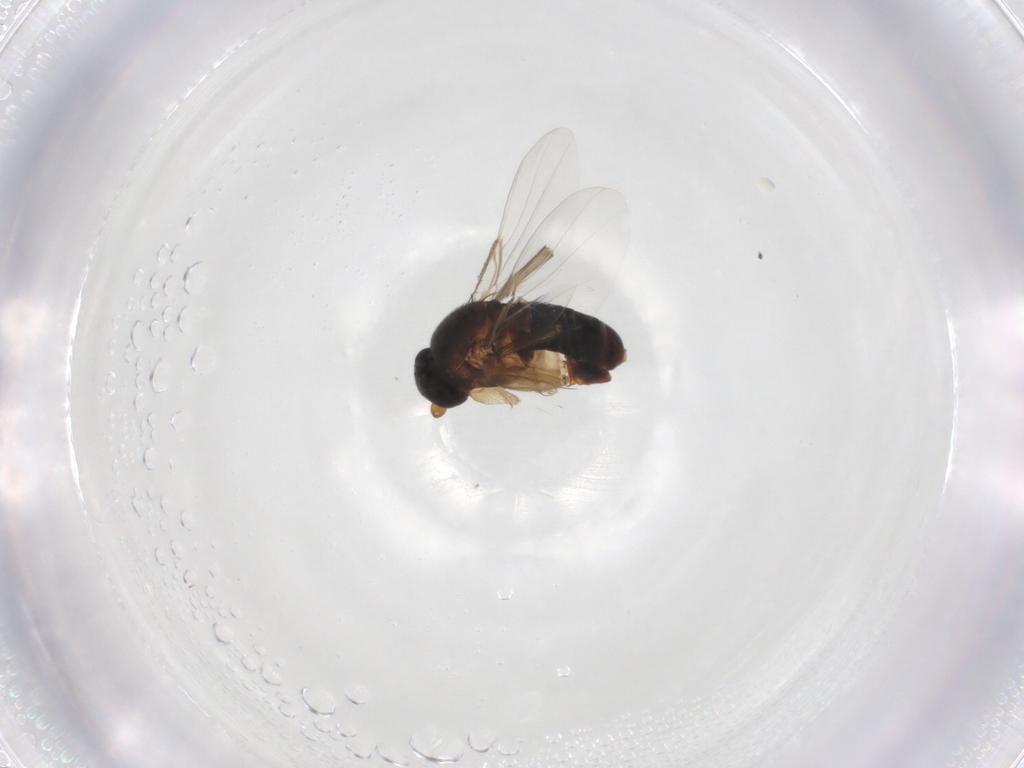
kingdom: Animalia
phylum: Arthropoda
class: Insecta
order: Diptera
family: Phoridae
